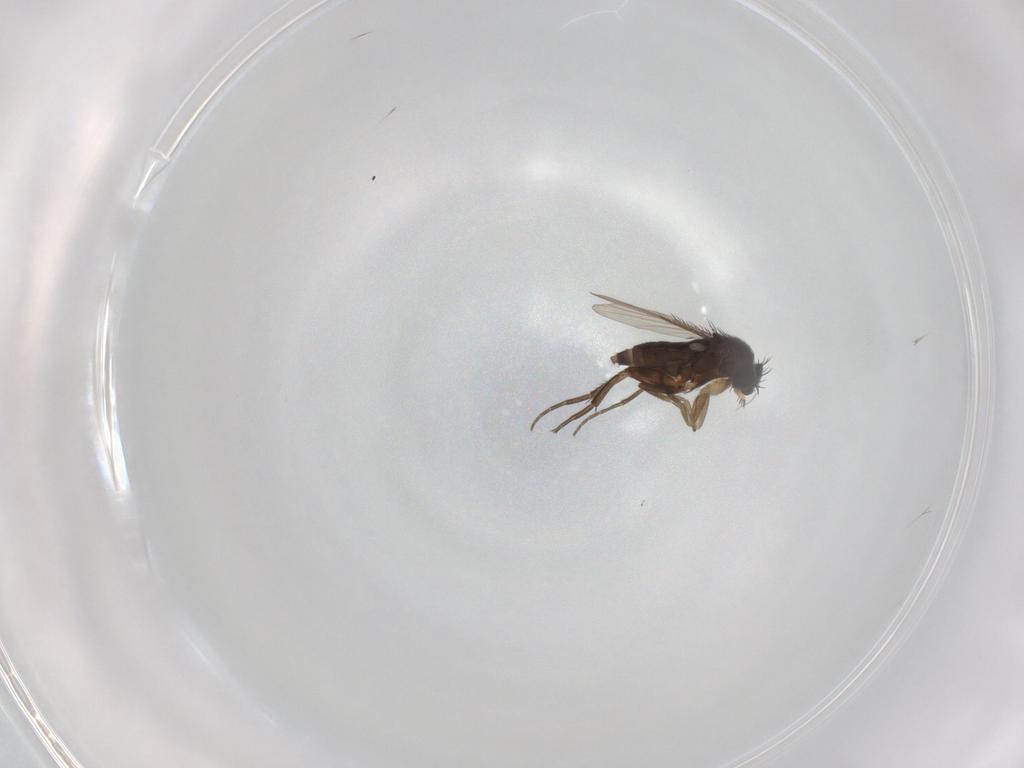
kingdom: Animalia
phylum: Arthropoda
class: Insecta
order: Diptera
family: Phoridae
